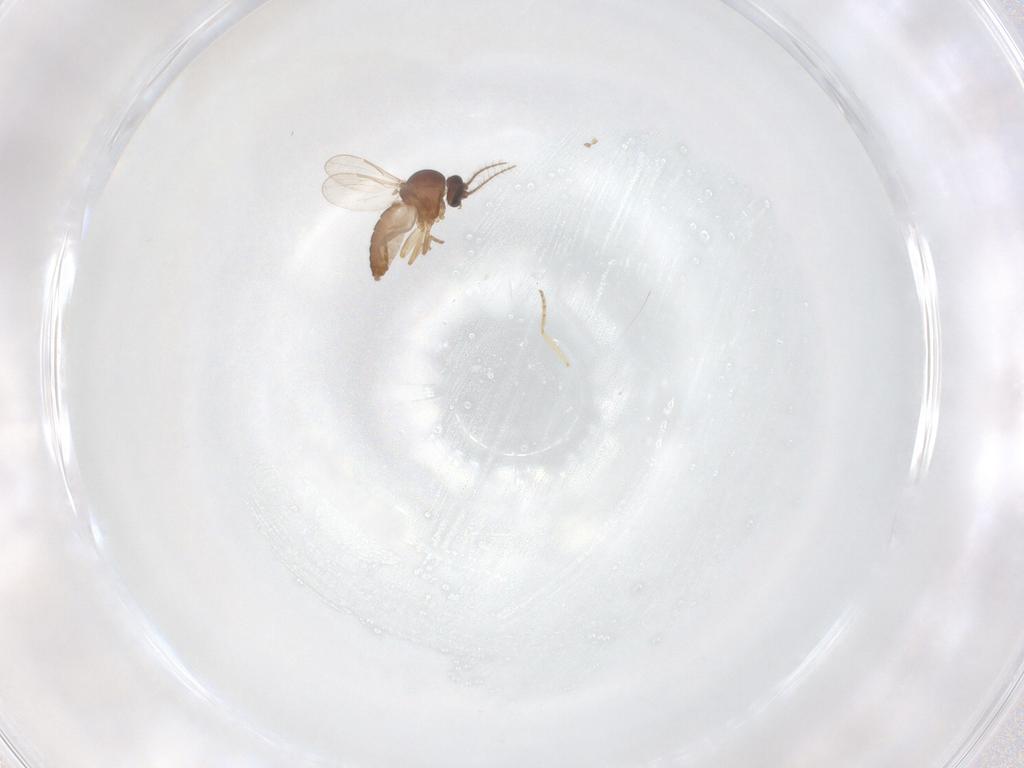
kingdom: Animalia
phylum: Arthropoda
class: Insecta
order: Diptera
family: Ceratopogonidae
